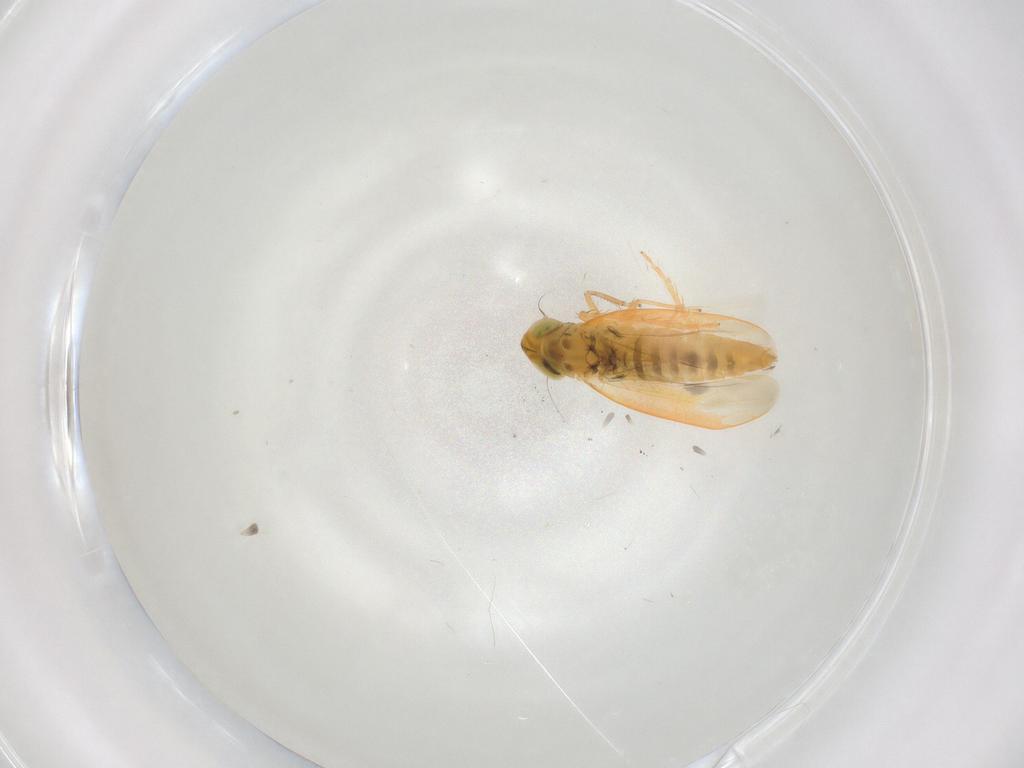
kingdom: Animalia
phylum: Arthropoda
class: Insecta
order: Hemiptera
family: Cicadellidae
